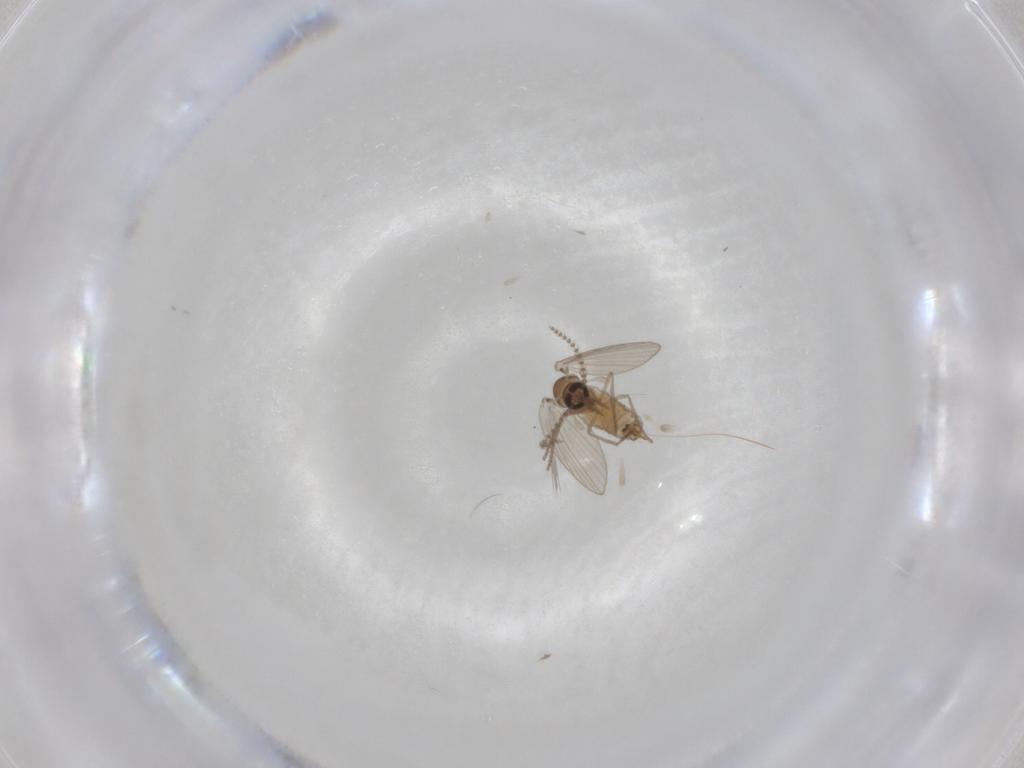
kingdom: Animalia
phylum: Arthropoda
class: Insecta
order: Diptera
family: Psychodidae
